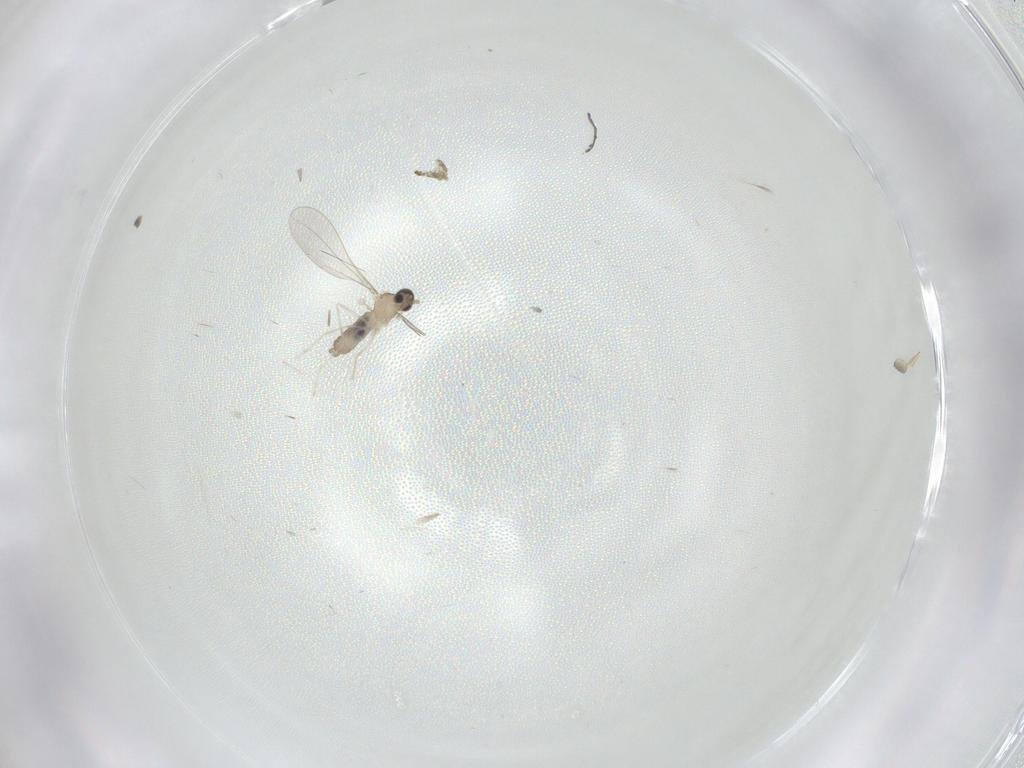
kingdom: Animalia
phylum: Arthropoda
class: Insecta
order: Diptera
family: Cecidomyiidae
